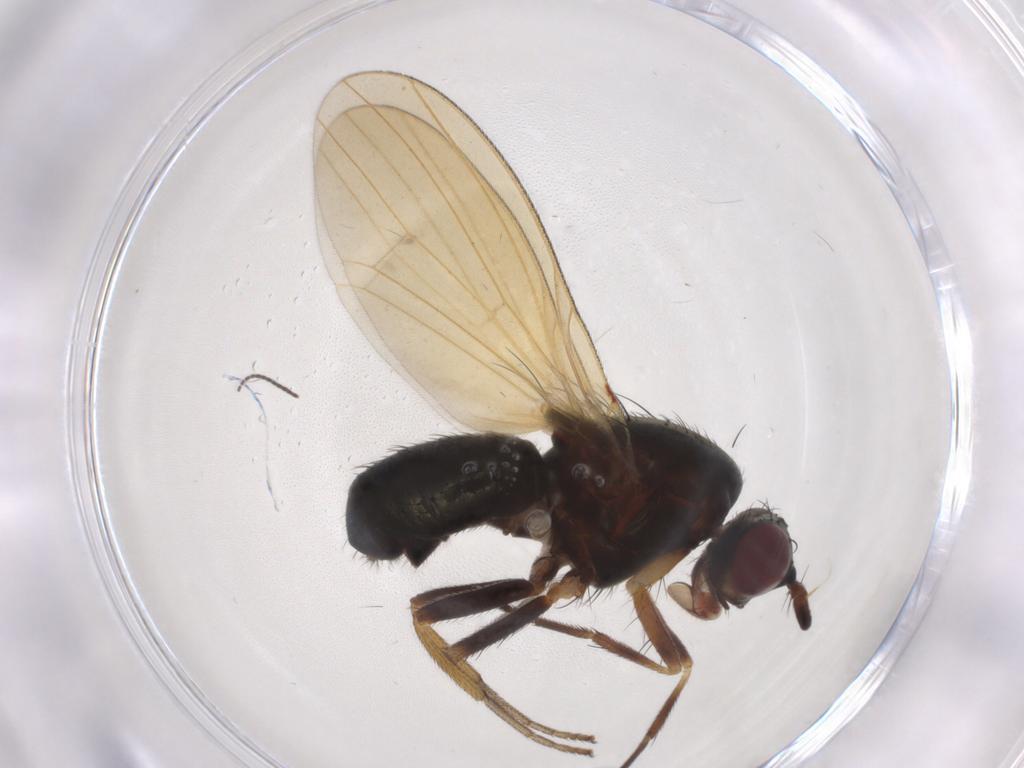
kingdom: Animalia
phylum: Arthropoda
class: Insecta
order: Diptera
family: Lauxaniidae
